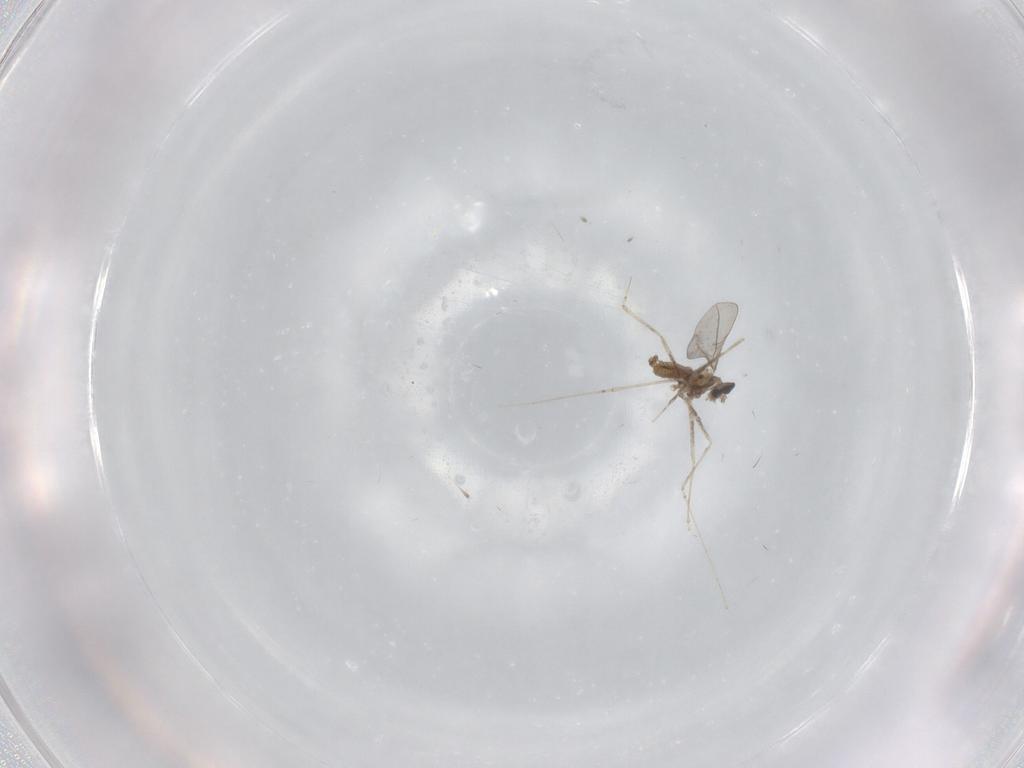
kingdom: Animalia
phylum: Arthropoda
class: Insecta
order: Diptera
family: Cecidomyiidae
